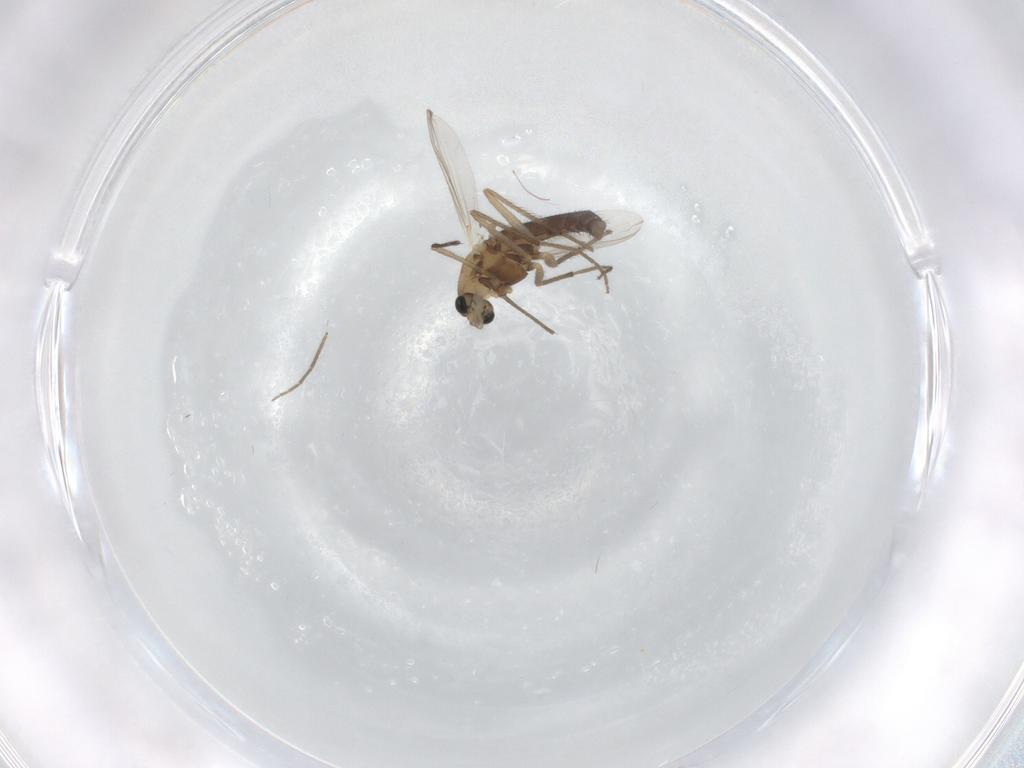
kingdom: Animalia
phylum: Arthropoda
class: Insecta
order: Diptera
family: Chironomidae
